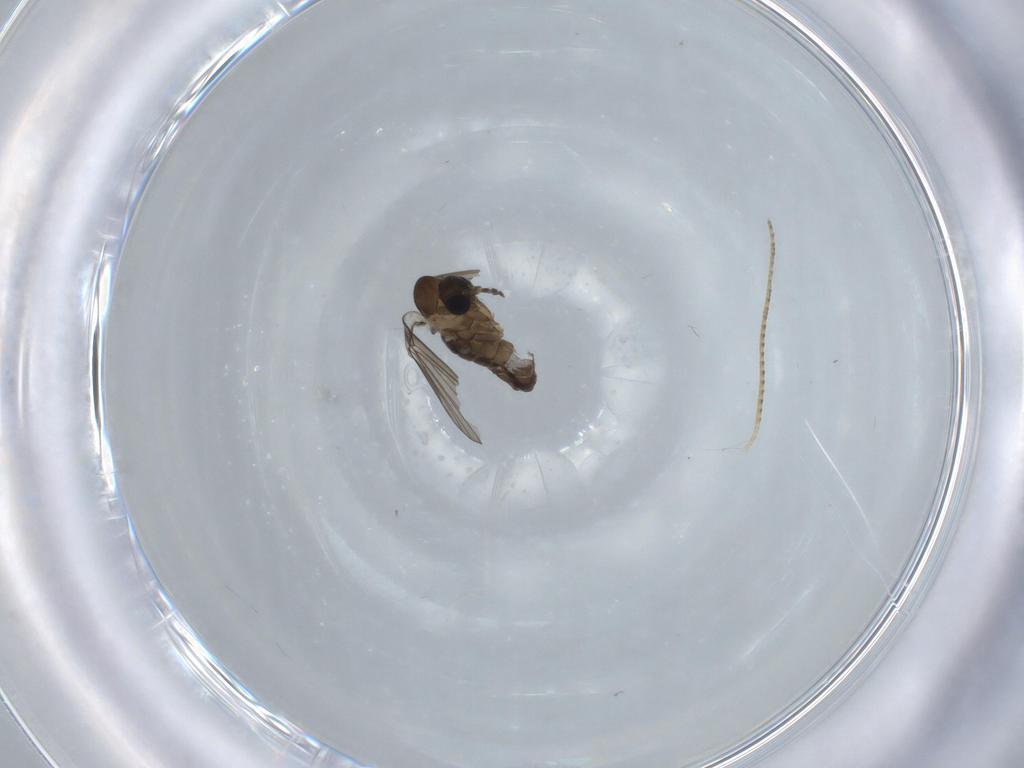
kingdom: Animalia
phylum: Arthropoda
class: Insecta
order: Diptera
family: Psychodidae
